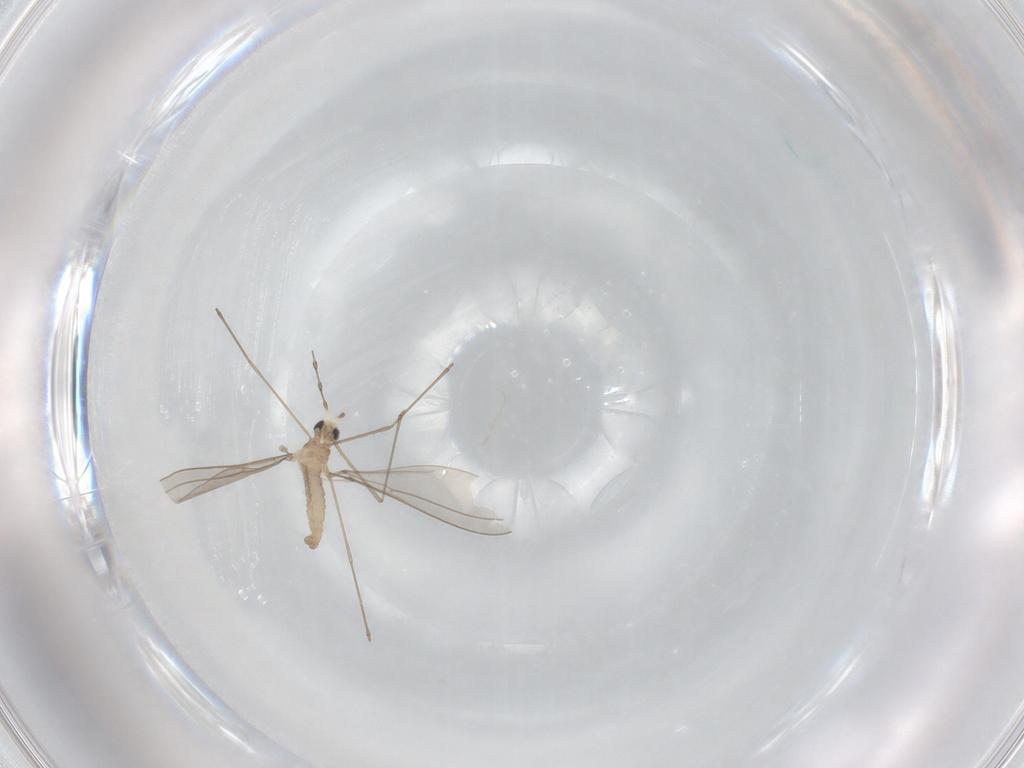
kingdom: Animalia
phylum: Arthropoda
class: Insecta
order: Diptera
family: Cecidomyiidae
